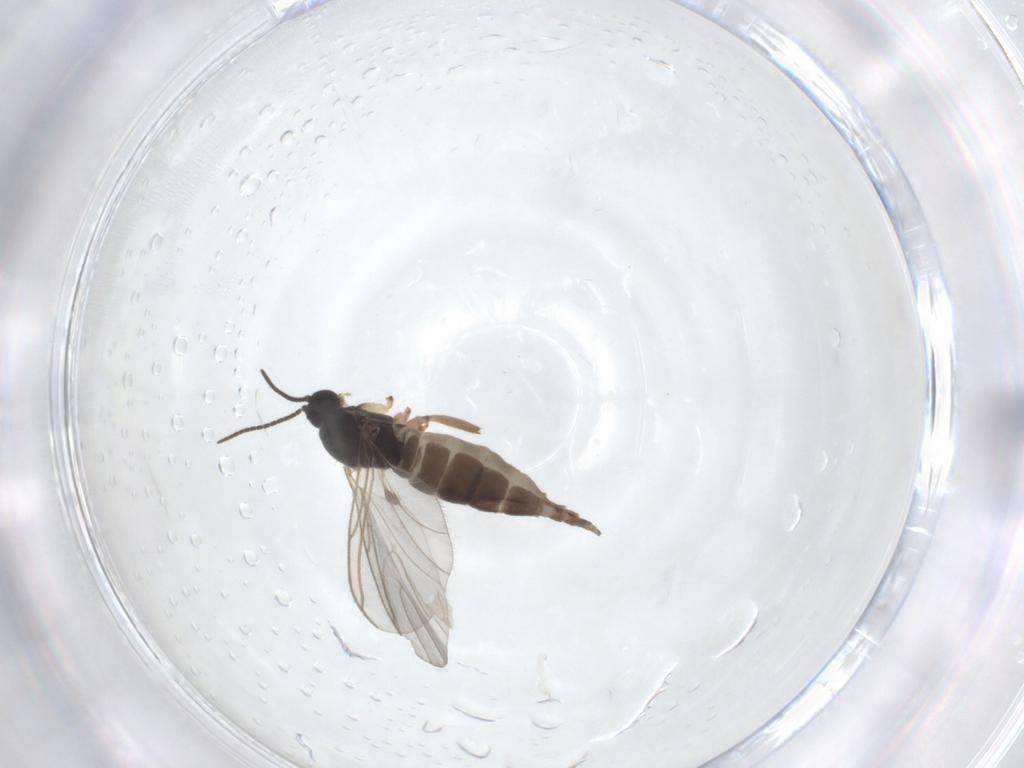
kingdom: Animalia
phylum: Arthropoda
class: Insecta
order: Diptera
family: Sciaridae
